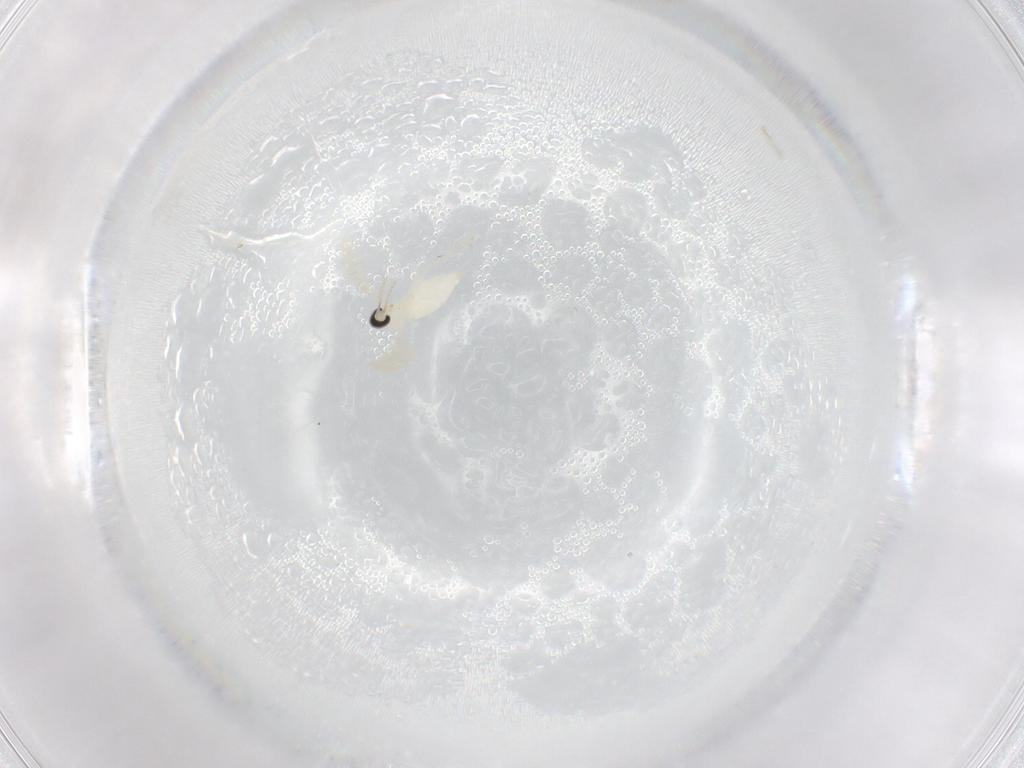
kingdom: Animalia
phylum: Arthropoda
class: Insecta
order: Diptera
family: Cecidomyiidae
